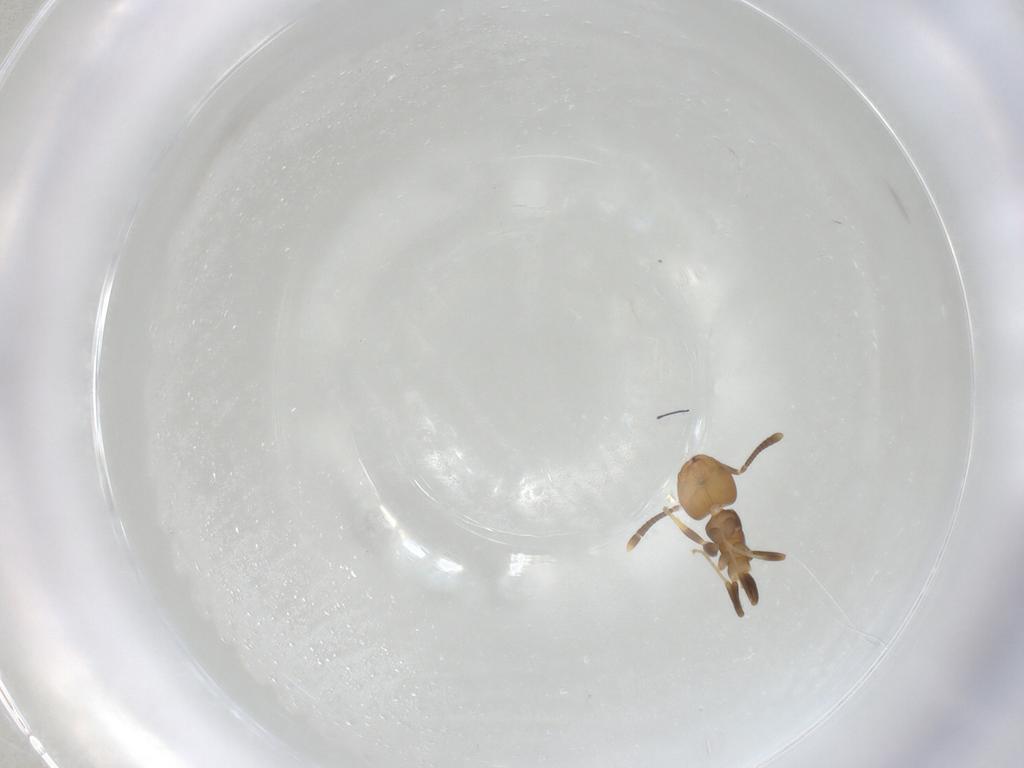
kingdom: Animalia
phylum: Arthropoda
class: Insecta
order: Hymenoptera
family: Formicidae
